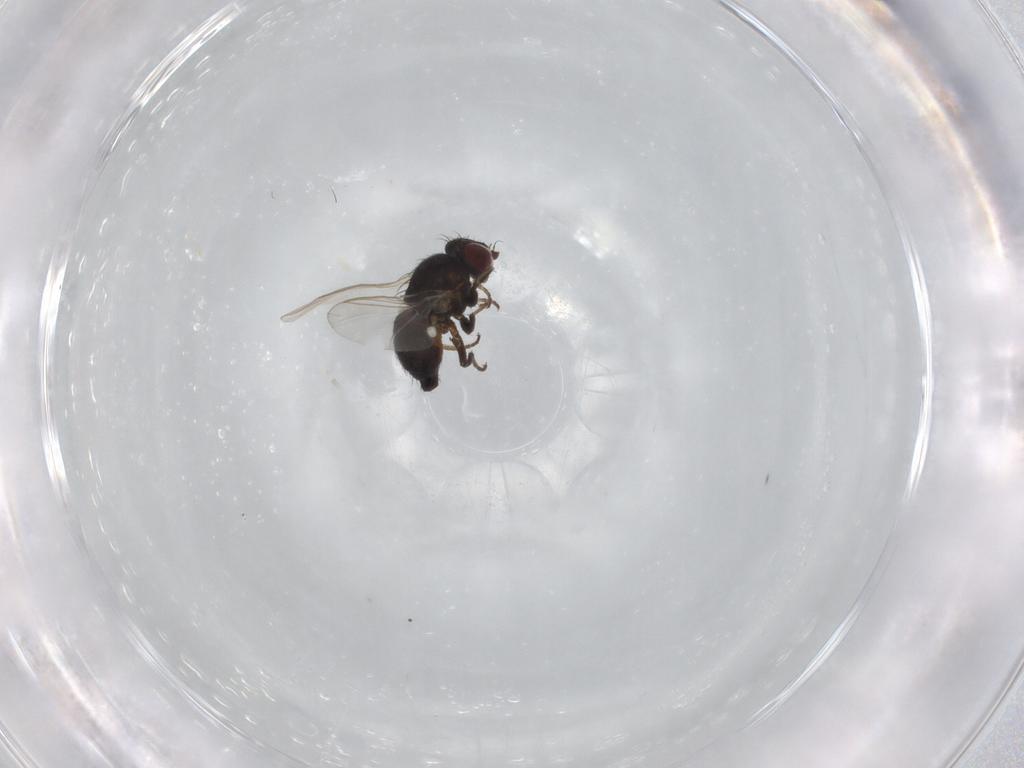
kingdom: Animalia
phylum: Arthropoda
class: Insecta
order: Diptera
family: Agromyzidae
